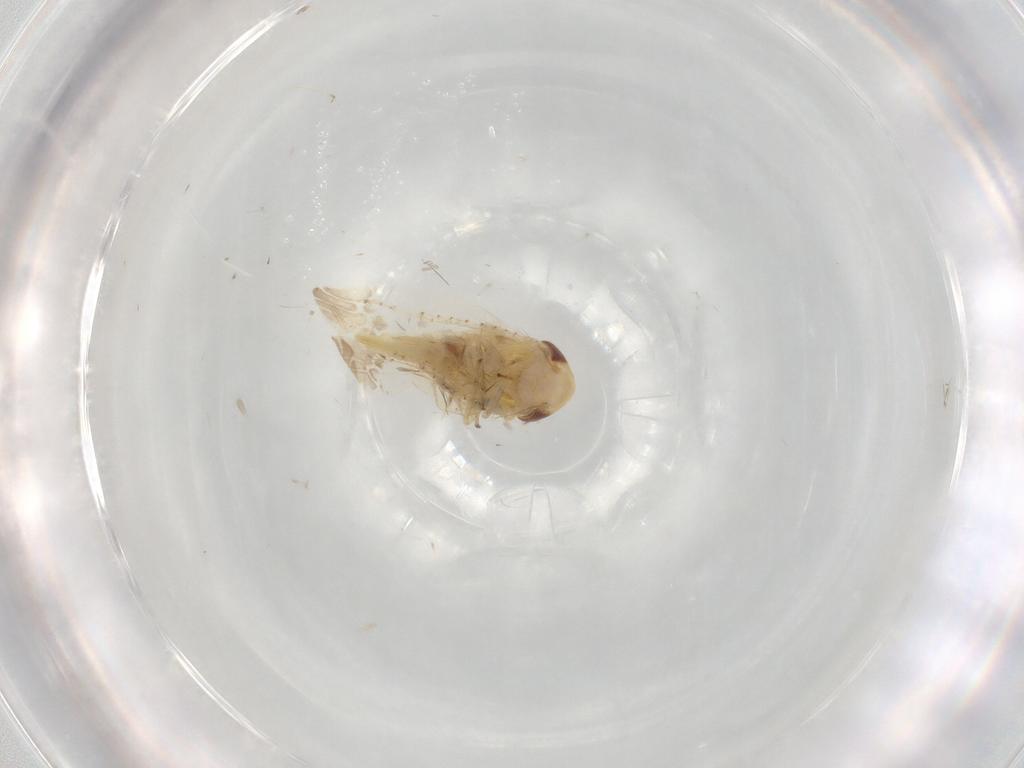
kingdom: Animalia
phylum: Arthropoda
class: Insecta
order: Hemiptera
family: Cicadellidae
